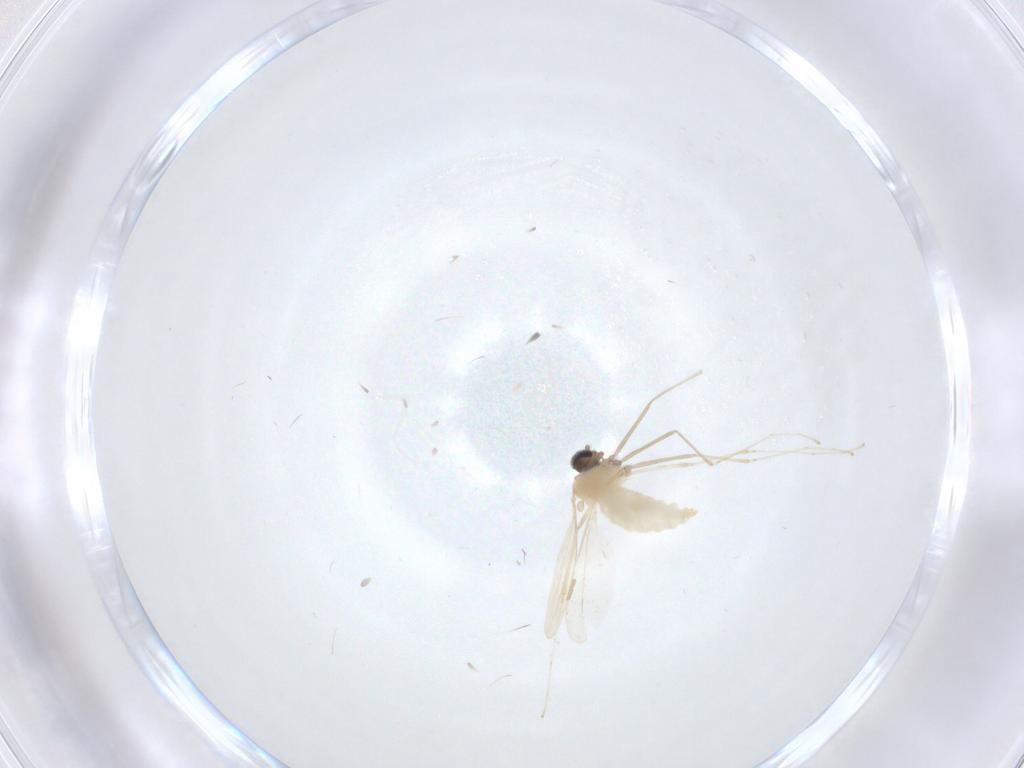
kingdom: Animalia
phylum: Arthropoda
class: Insecta
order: Diptera
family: Cecidomyiidae
